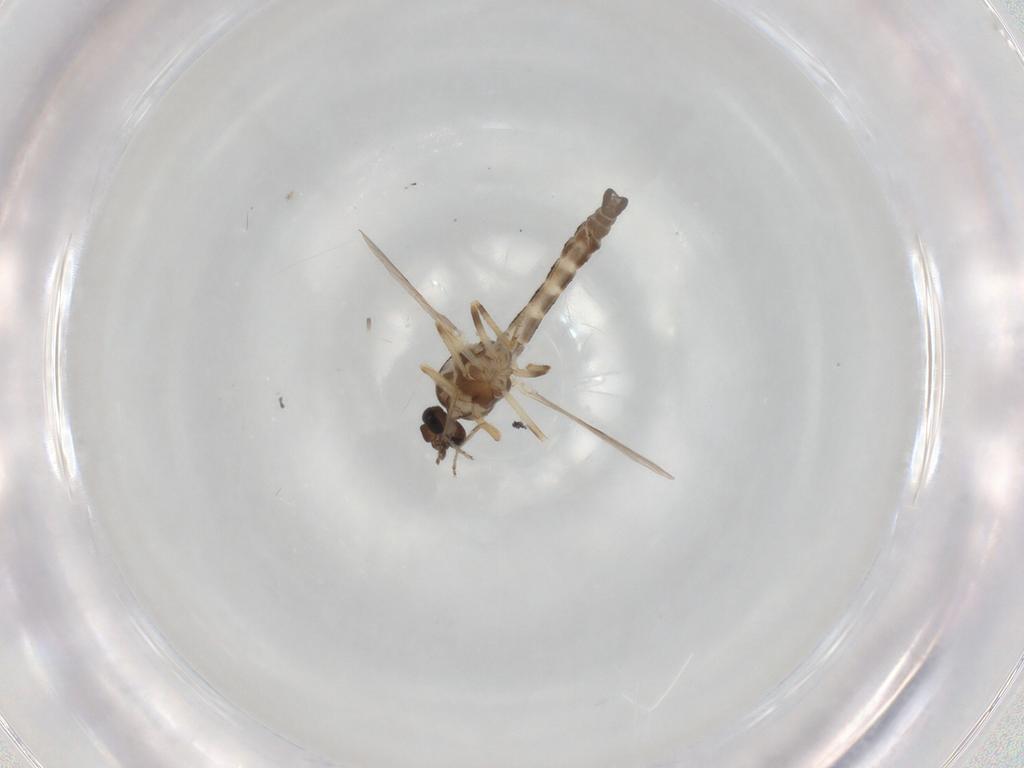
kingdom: Animalia
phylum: Arthropoda
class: Insecta
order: Diptera
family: Ceratopogonidae
